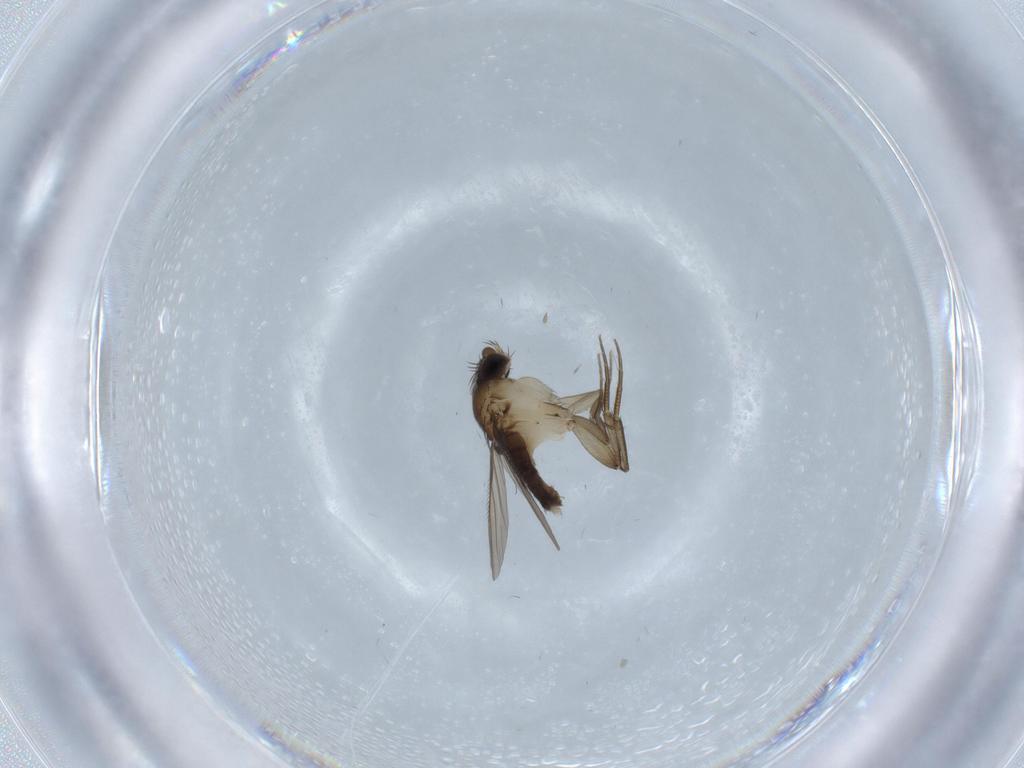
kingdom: Animalia
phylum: Arthropoda
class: Insecta
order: Diptera
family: Phoridae
